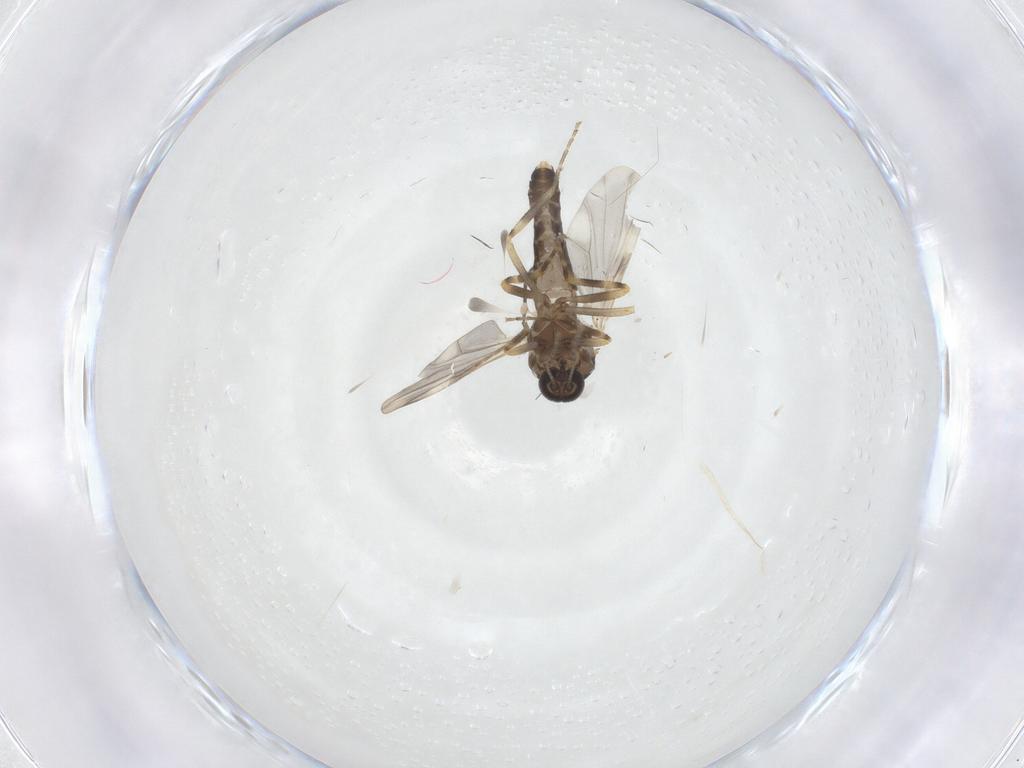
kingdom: Animalia
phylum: Arthropoda
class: Insecta
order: Diptera
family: Ceratopogonidae
